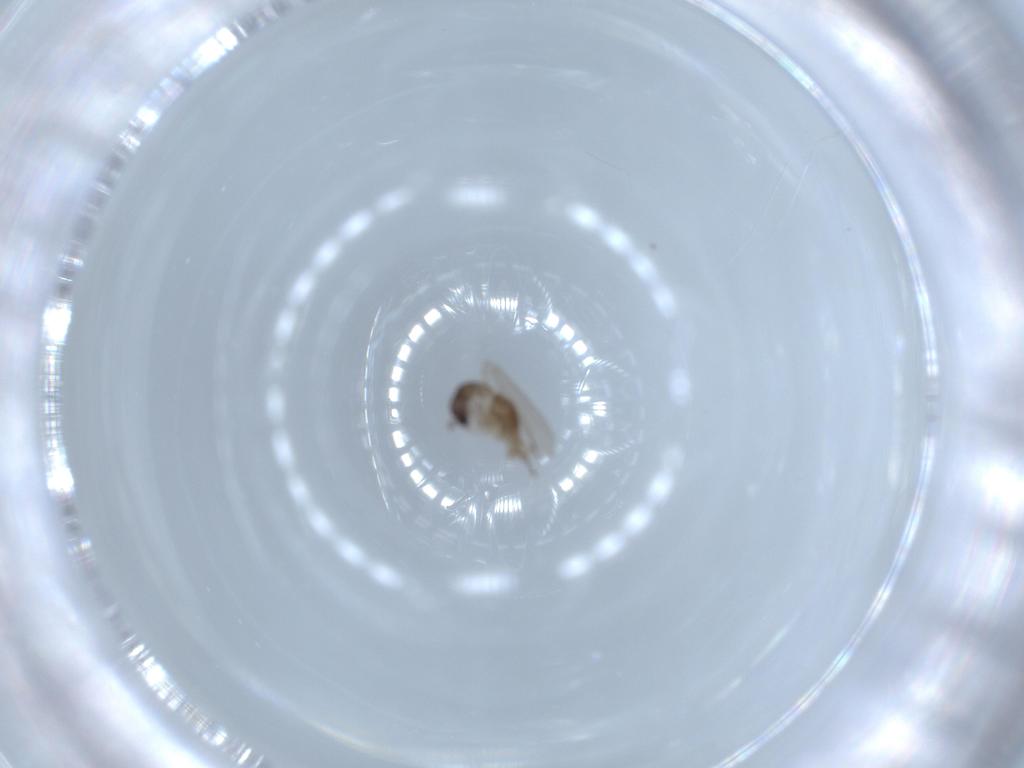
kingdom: Animalia
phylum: Arthropoda
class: Insecta
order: Diptera
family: Psychodidae
